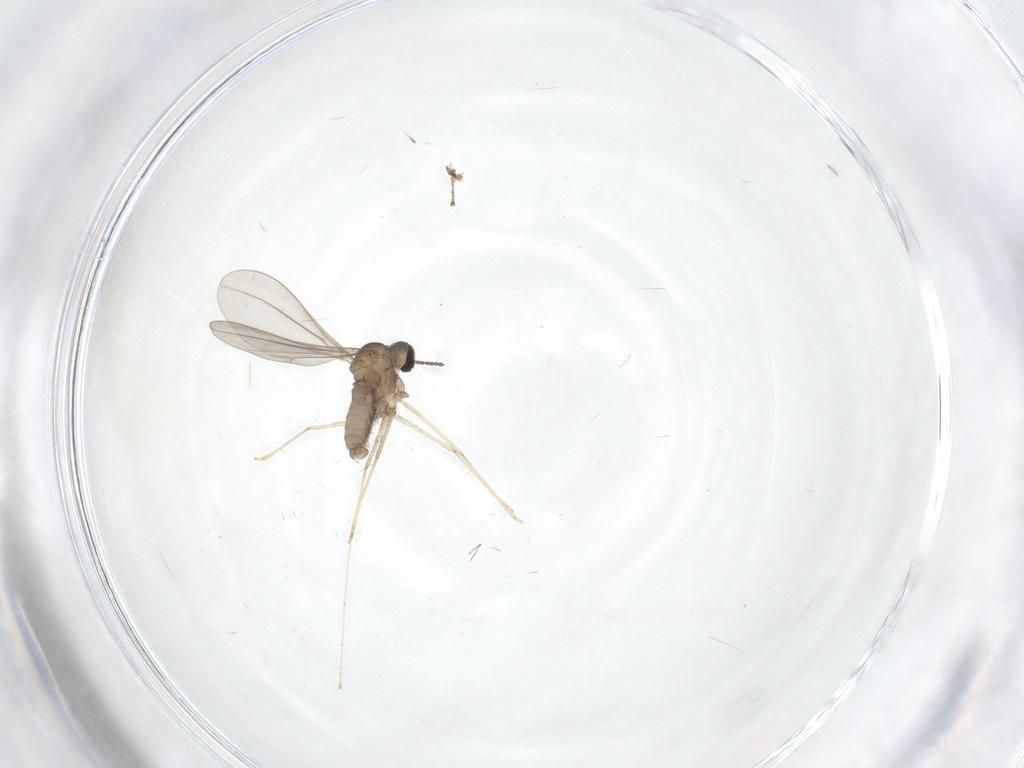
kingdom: Animalia
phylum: Arthropoda
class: Insecta
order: Diptera
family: Cecidomyiidae
